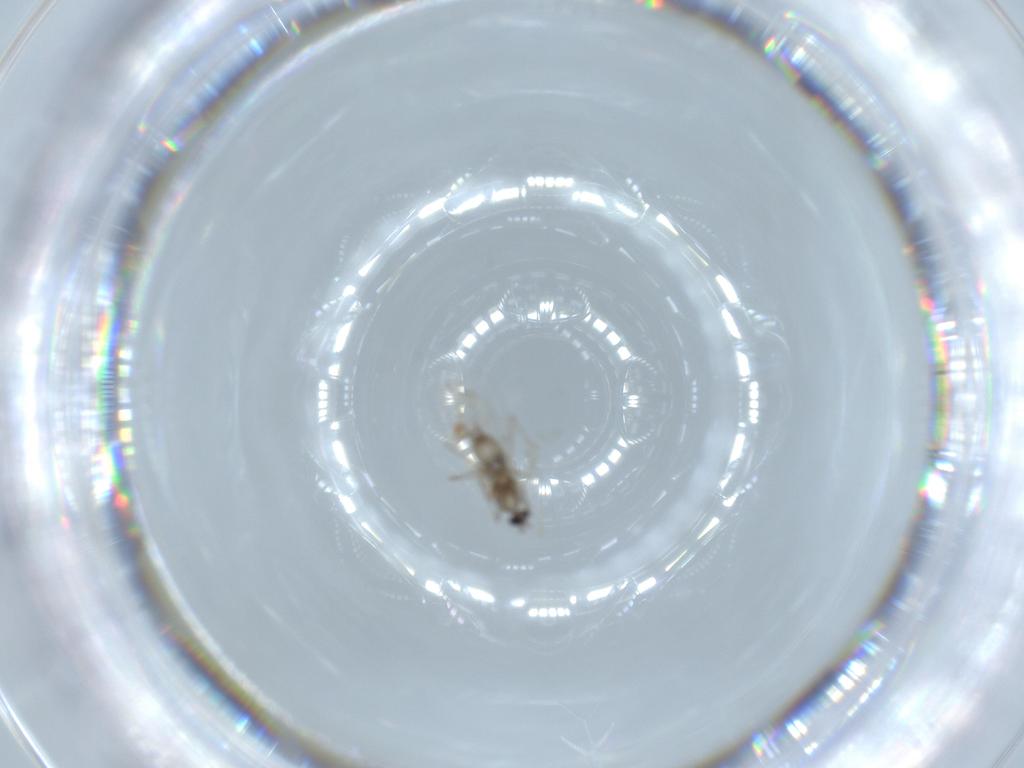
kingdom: Animalia
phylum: Arthropoda
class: Insecta
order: Diptera
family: Cecidomyiidae
